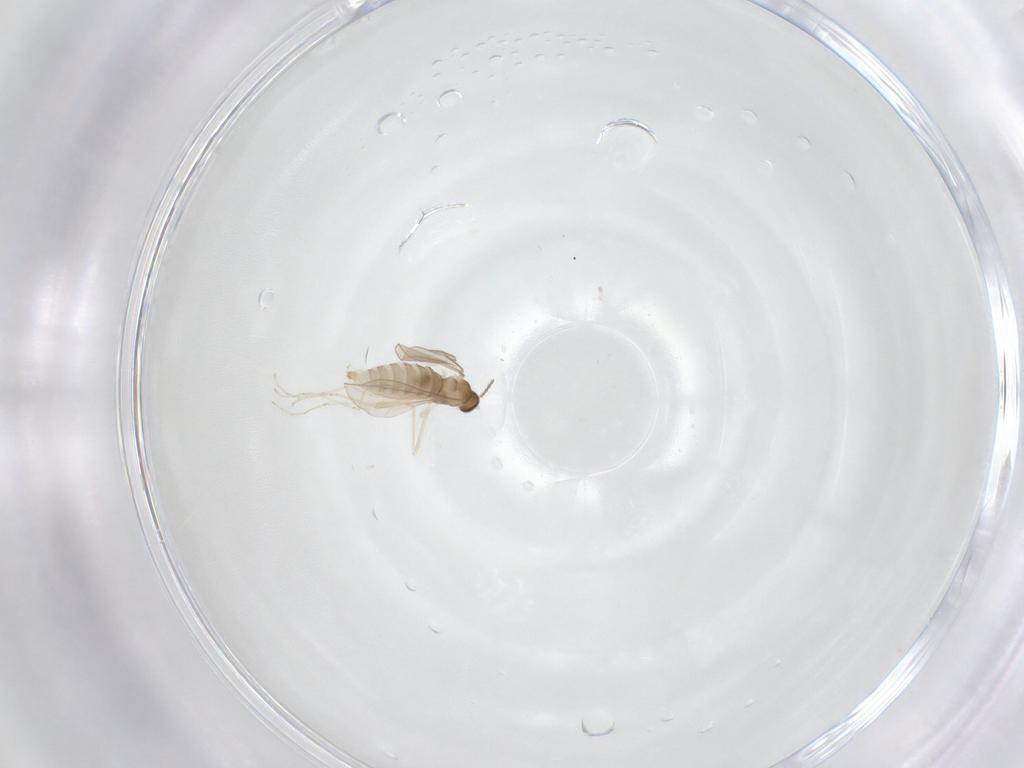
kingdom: Animalia
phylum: Arthropoda
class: Insecta
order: Diptera
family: Cecidomyiidae
